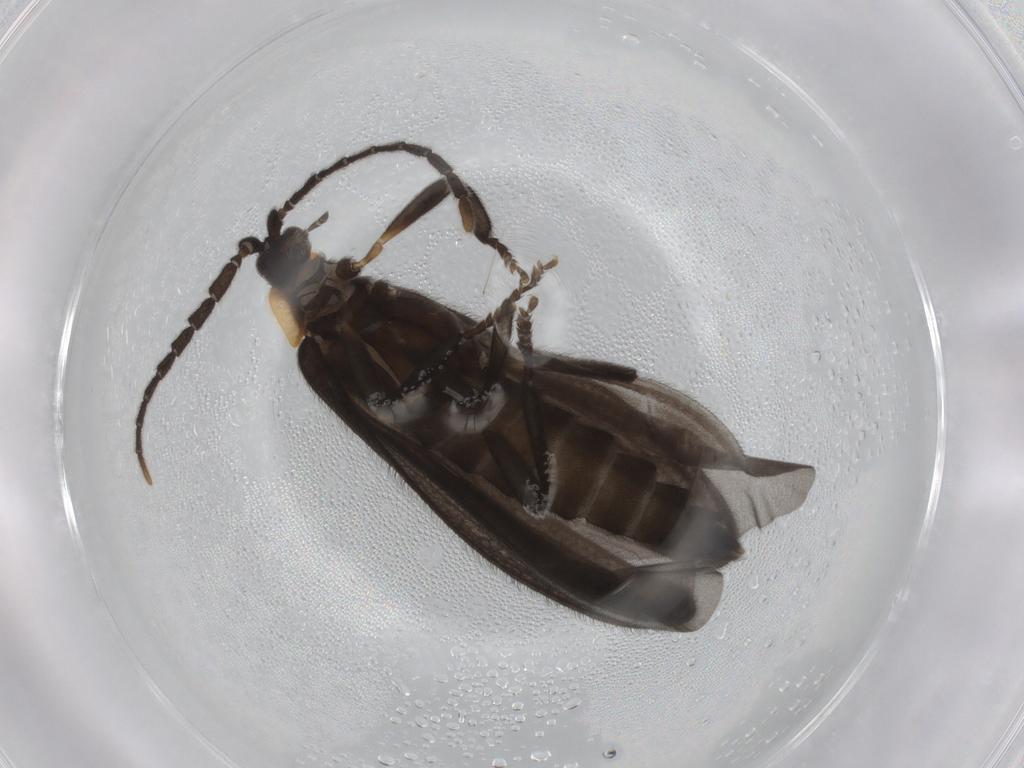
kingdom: Animalia
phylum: Arthropoda
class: Insecta
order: Coleoptera
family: Lycidae
